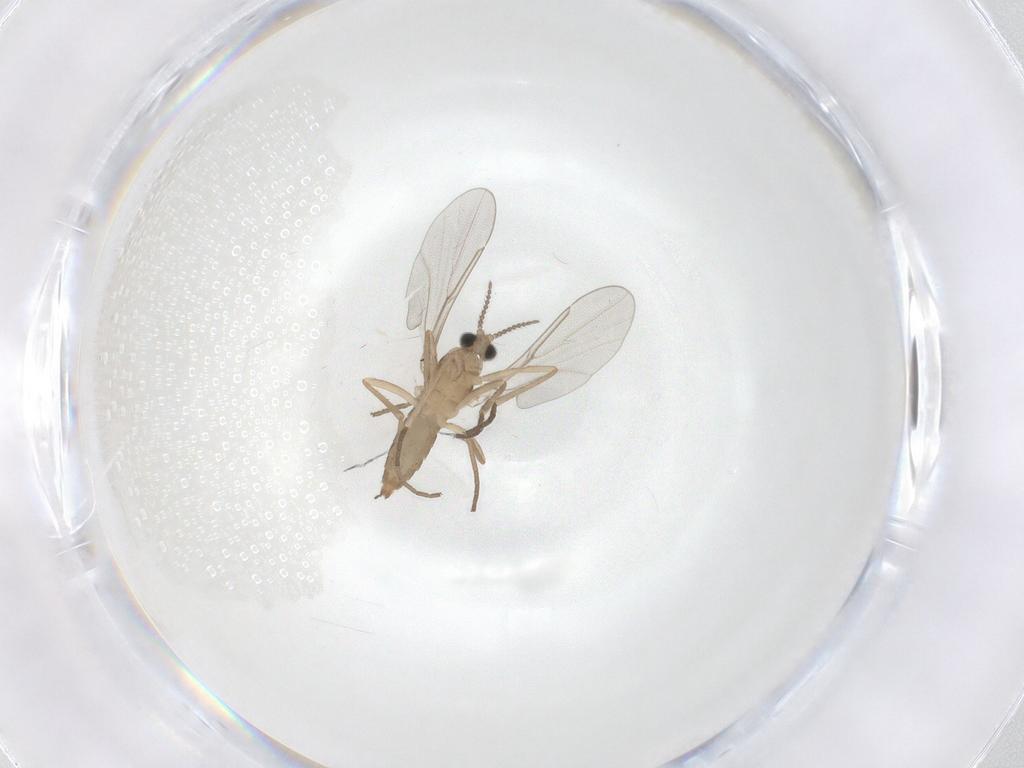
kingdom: Animalia
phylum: Arthropoda
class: Insecta
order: Diptera
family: Cecidomyiidae
